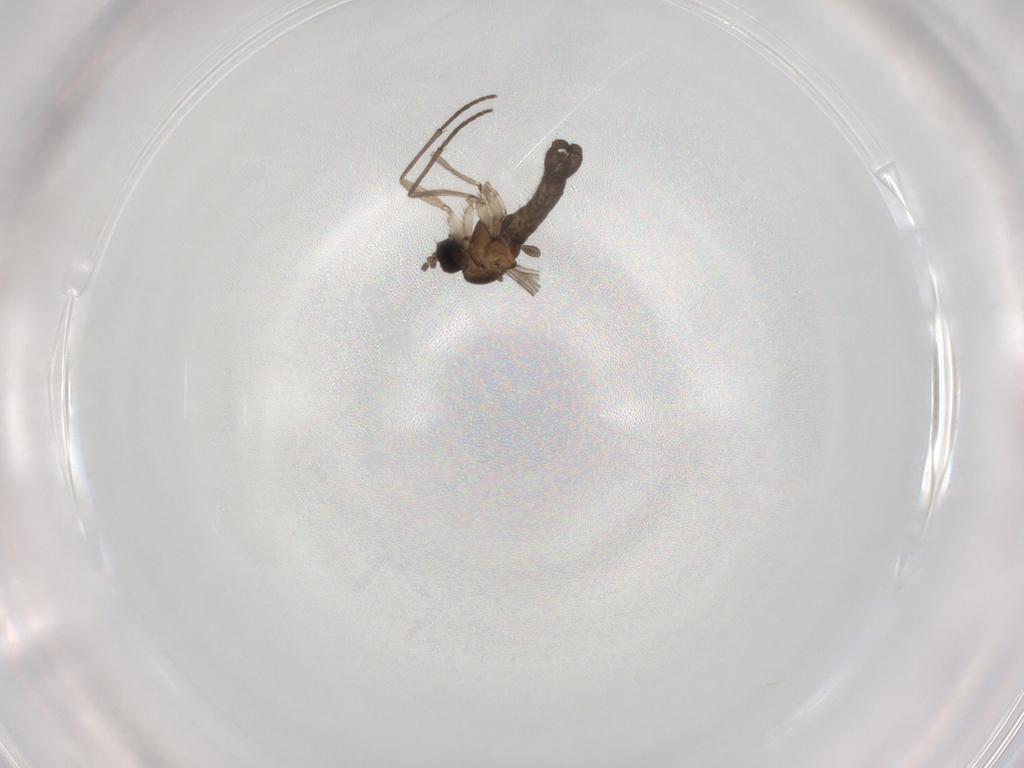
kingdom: Animalia
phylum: Arthropoda
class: Insecta
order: Diptera
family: Sciaridae
